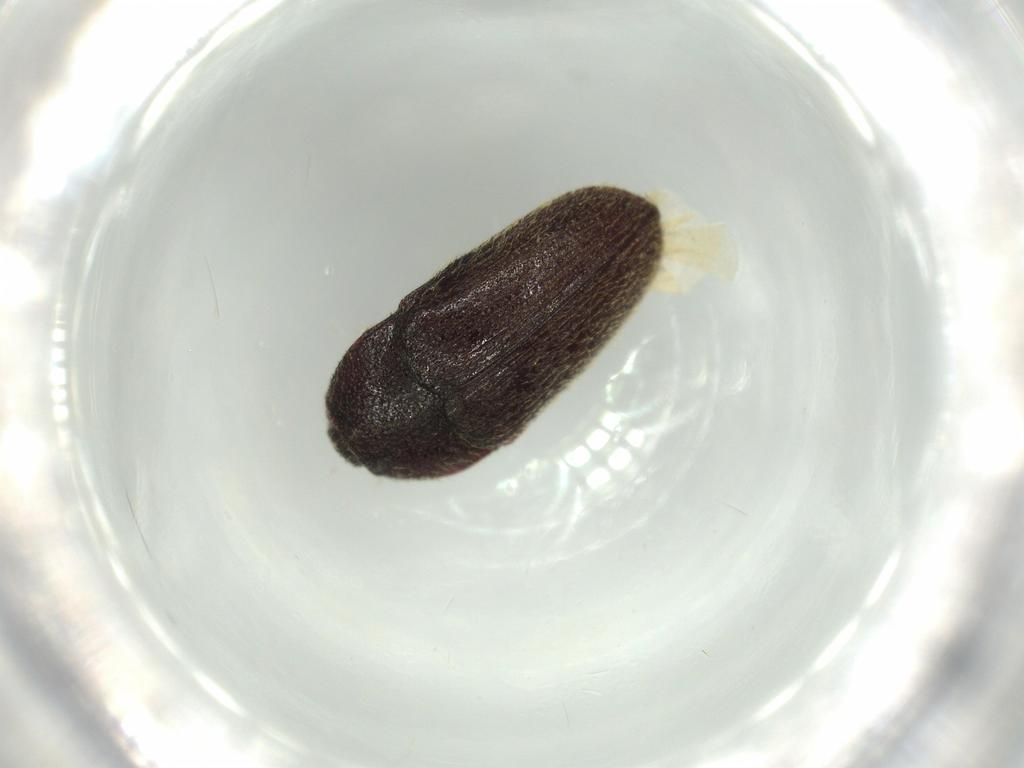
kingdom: Animalia
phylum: Arthropoda
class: Insecta
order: Coleoptera
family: Throscidae
